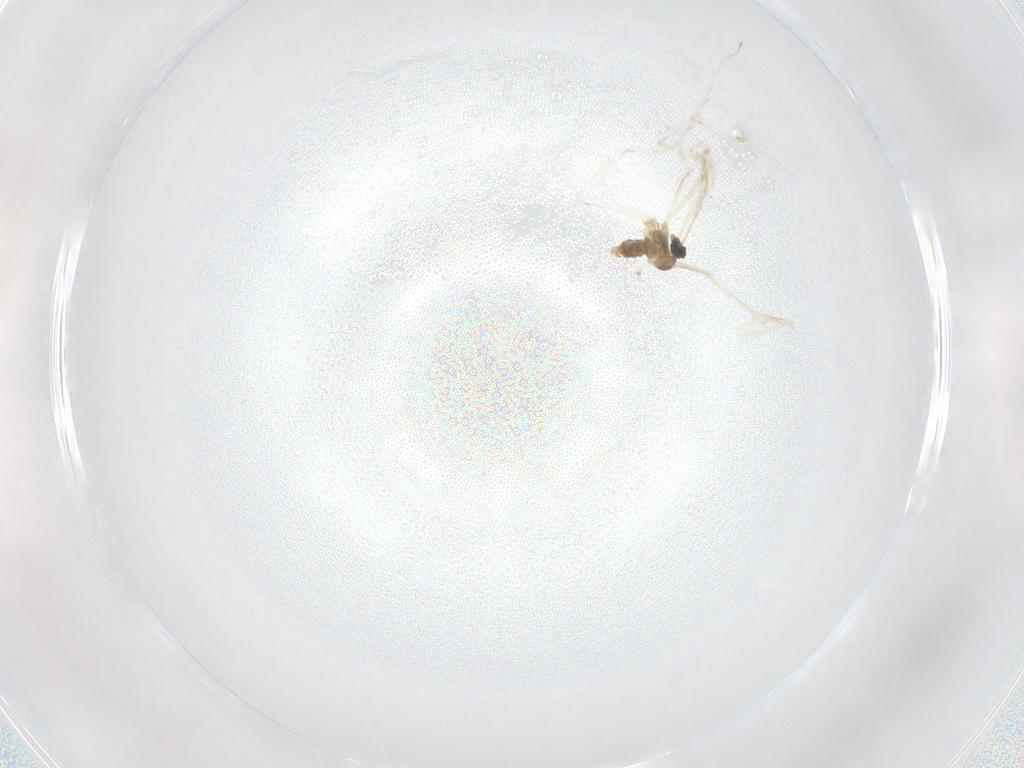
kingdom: Animalia
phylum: Arthropoda
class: Insecta
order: Diptera
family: Cecidomyiidae
